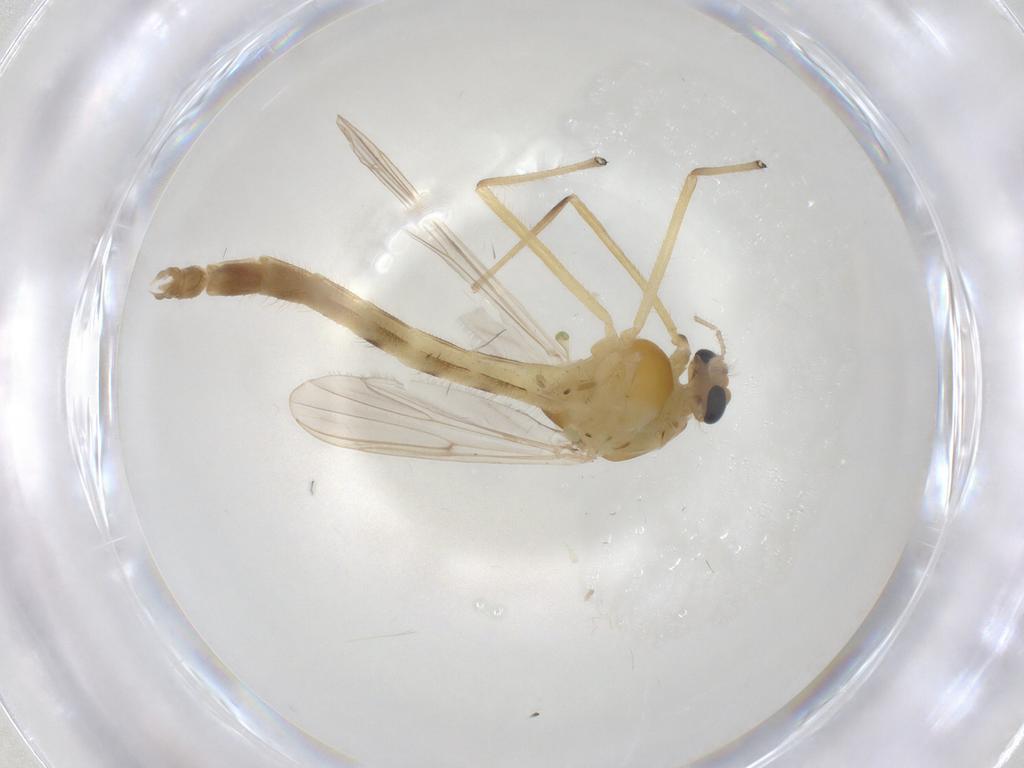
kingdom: Animalia
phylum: Arthropoda
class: Insecta
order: Diptera
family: Chironomidae
